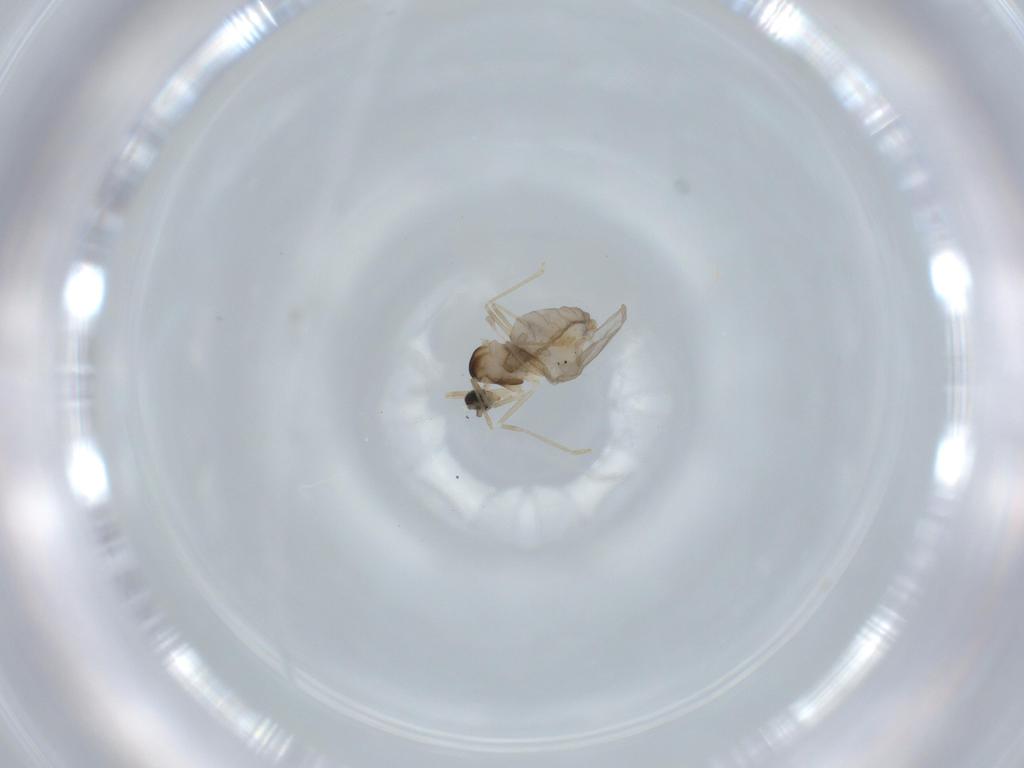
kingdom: Animalia
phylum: Arthropoda
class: Insecta
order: Diptera
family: Cecidomyiidae
